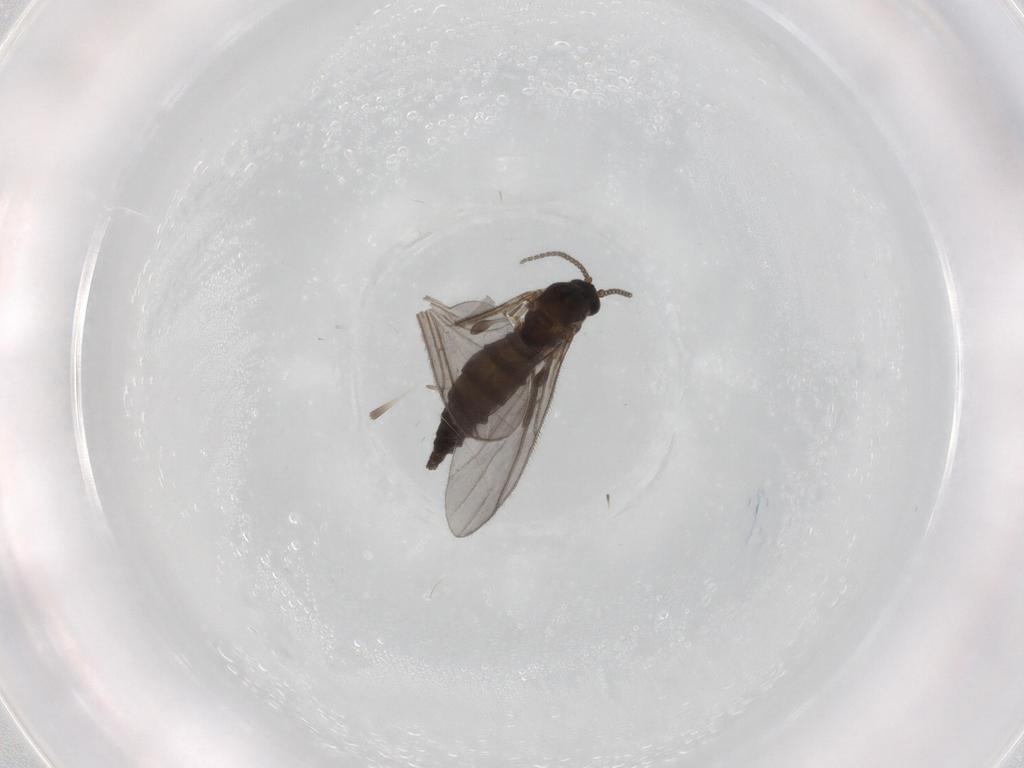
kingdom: Animalia
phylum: Arthropoda
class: Insecta
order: Diptera
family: Sciaridae
